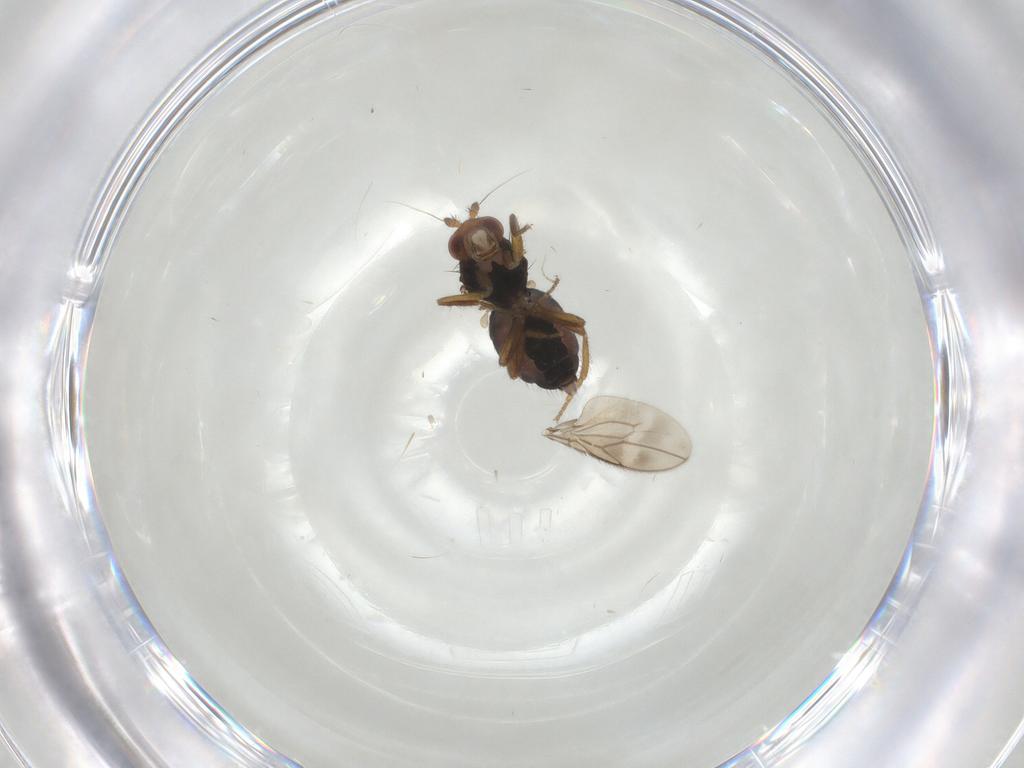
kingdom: Animalia
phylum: Arthropoda
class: Insecta
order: Diptera
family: Sphaeroceridae
